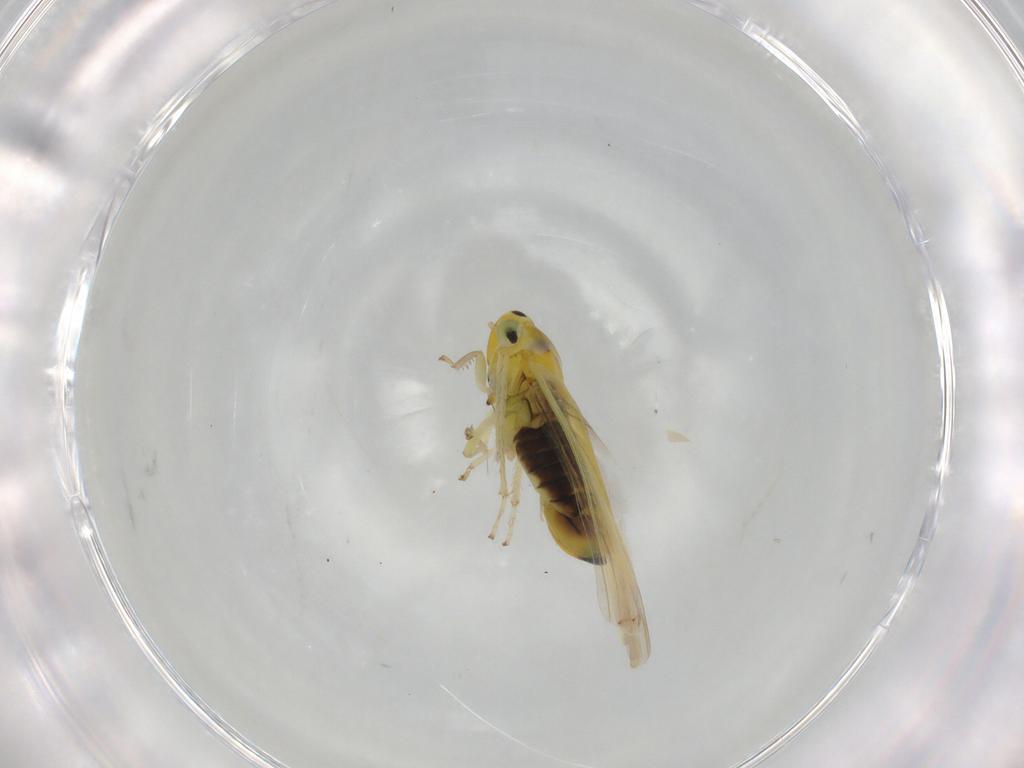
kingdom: Animalia
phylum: Arthropoda
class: Insecta
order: Hemiptera
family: Cicadellidae
